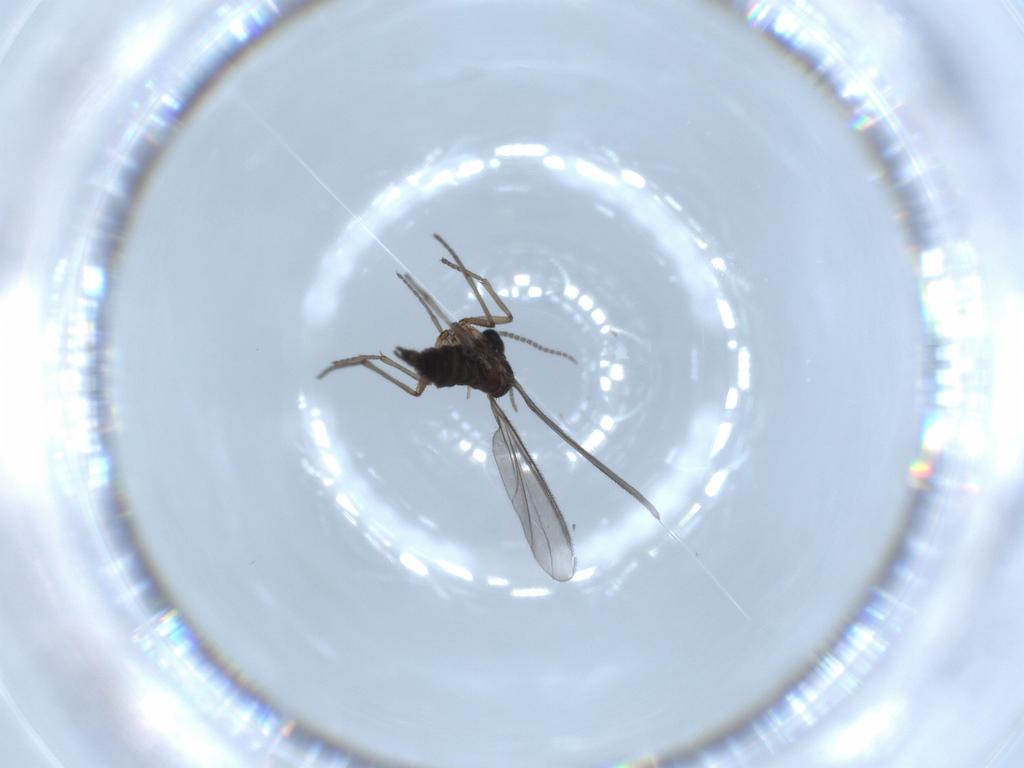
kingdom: Animalia
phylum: Arthropoda
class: Insecta
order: Diptera
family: Sciaridae
